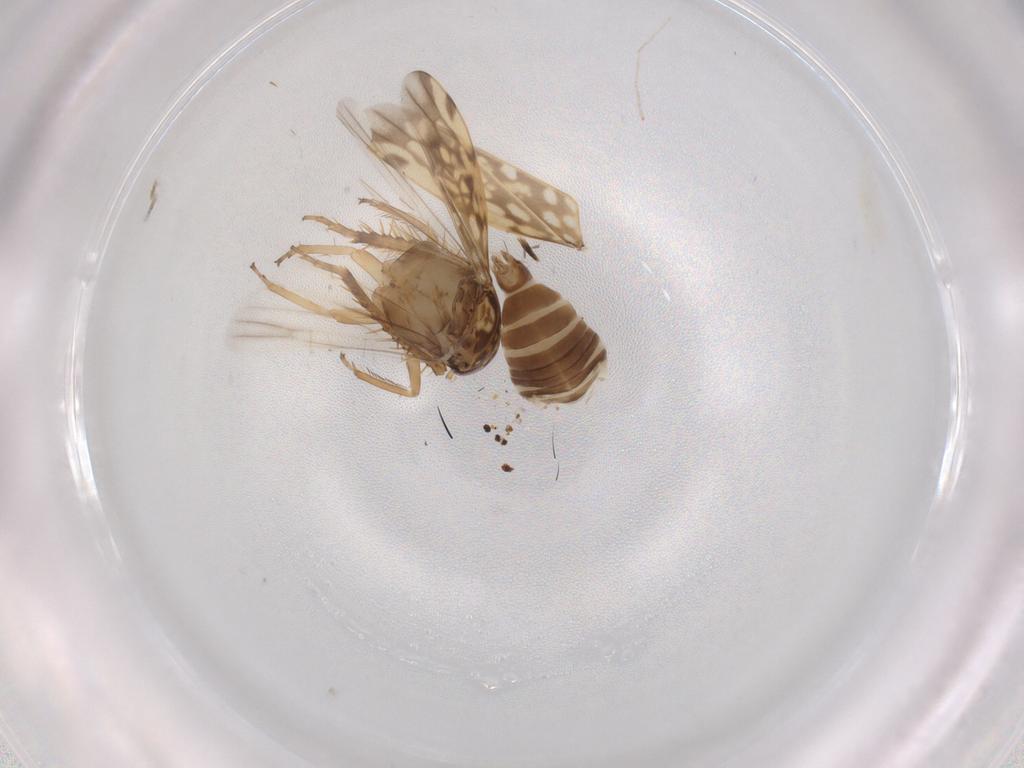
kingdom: Animalia
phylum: Arthropoda
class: Insecta
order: Hemiptera
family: Cicadellidae
